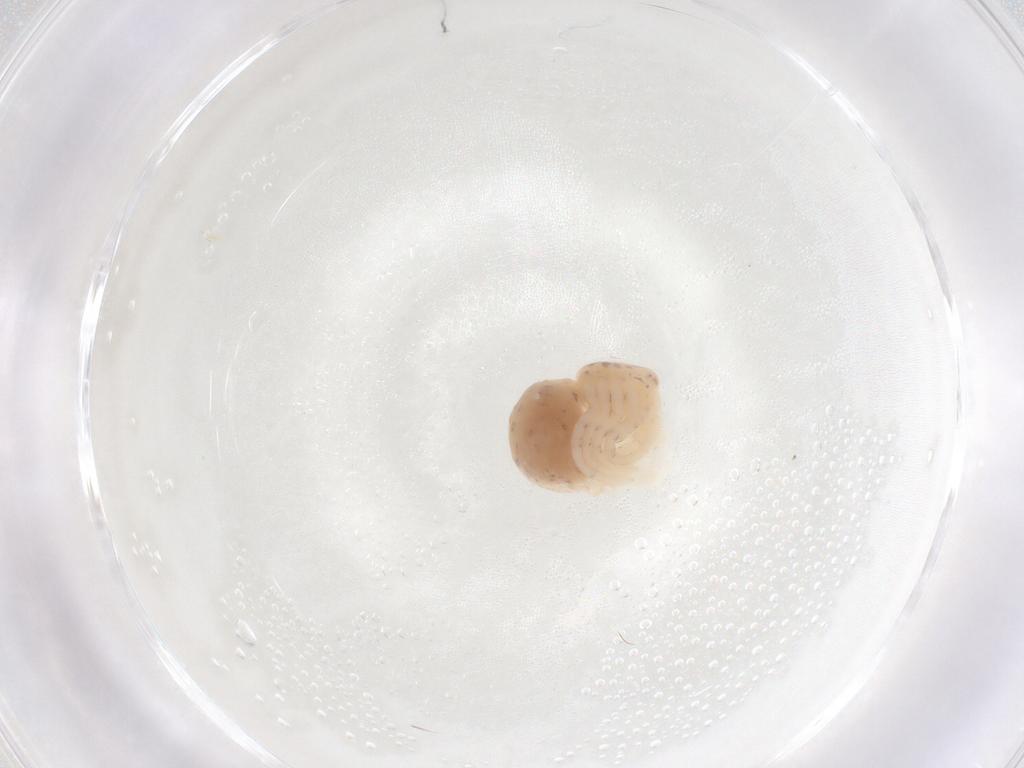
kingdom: Animalia
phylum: Arthropoda
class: Arachnida
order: Araneae
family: Scytodidae
